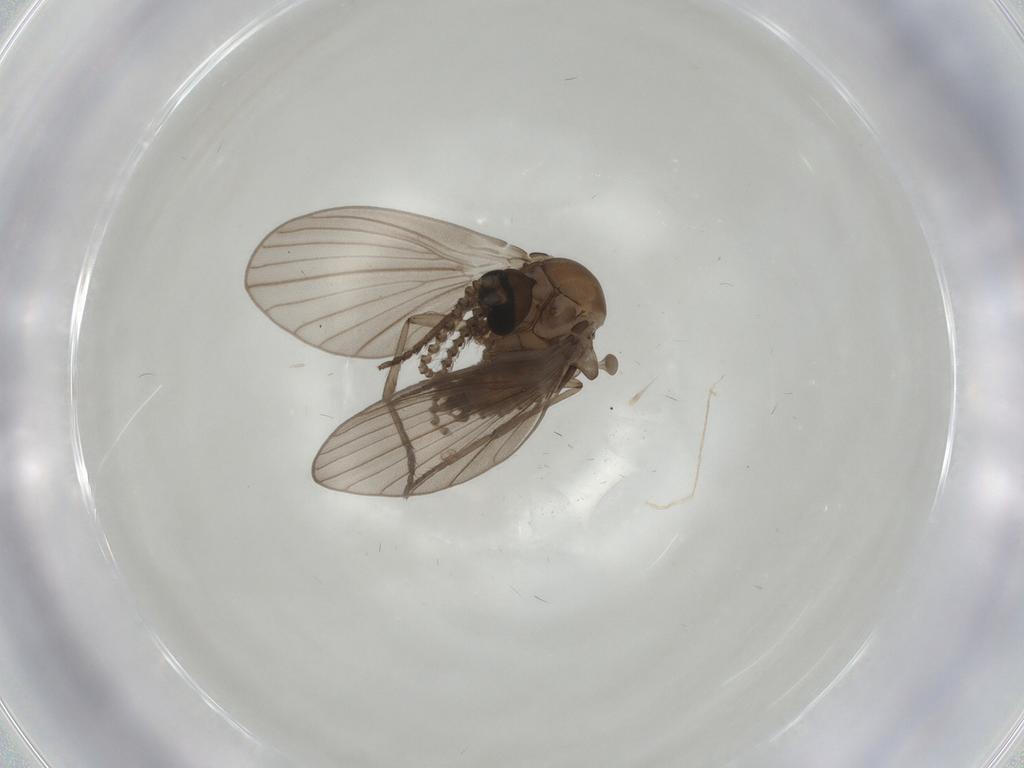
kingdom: Animalia
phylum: Arthropoda
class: Insecta
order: Diptera
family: Psychodidae
